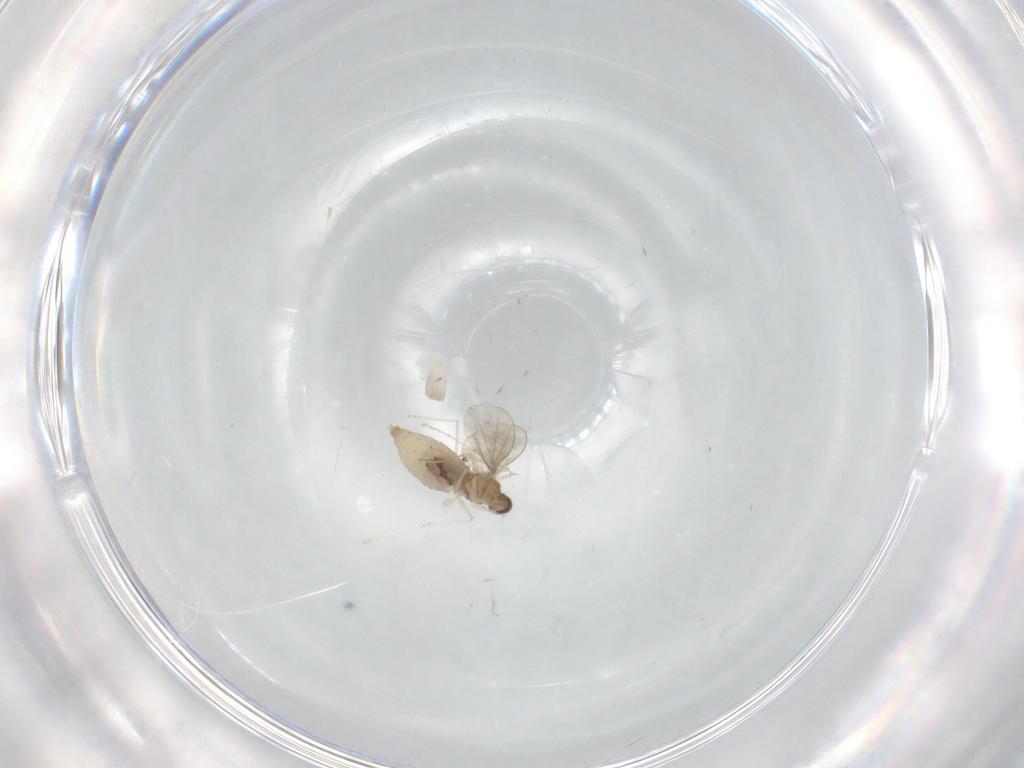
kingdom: Animalia
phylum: Arthropoda
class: Insecta
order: Diptera
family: Cecidomyiidae
